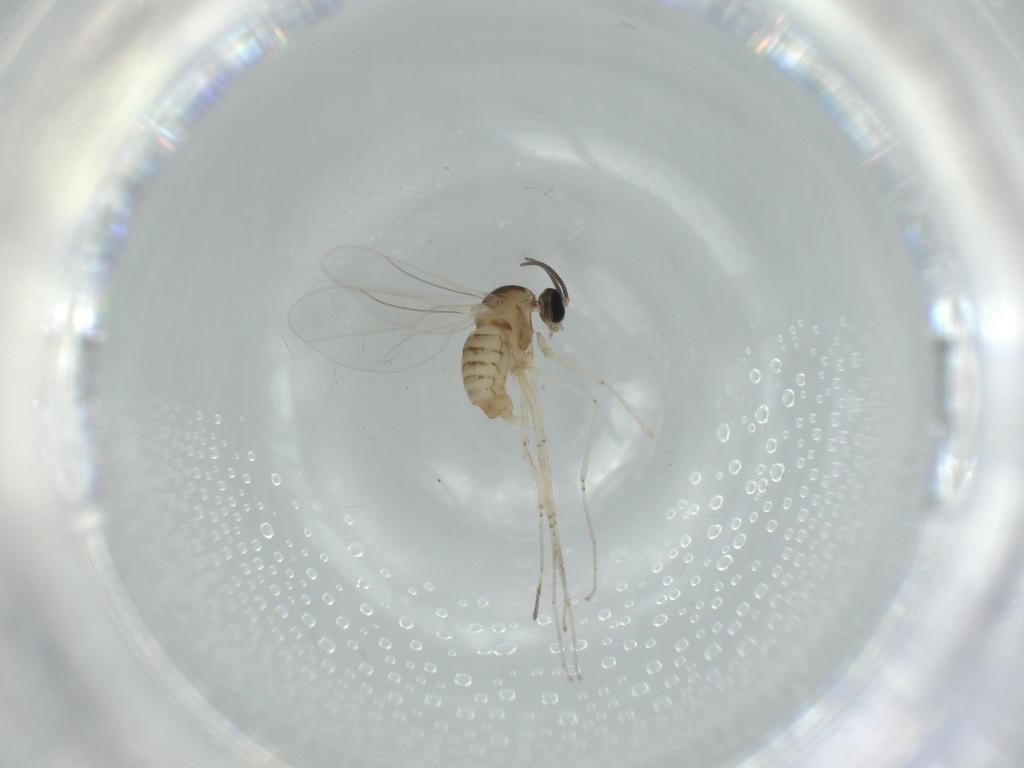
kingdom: Animalia
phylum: Arthropoda
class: Insecta
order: Diptera
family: Cecidomyiidae
